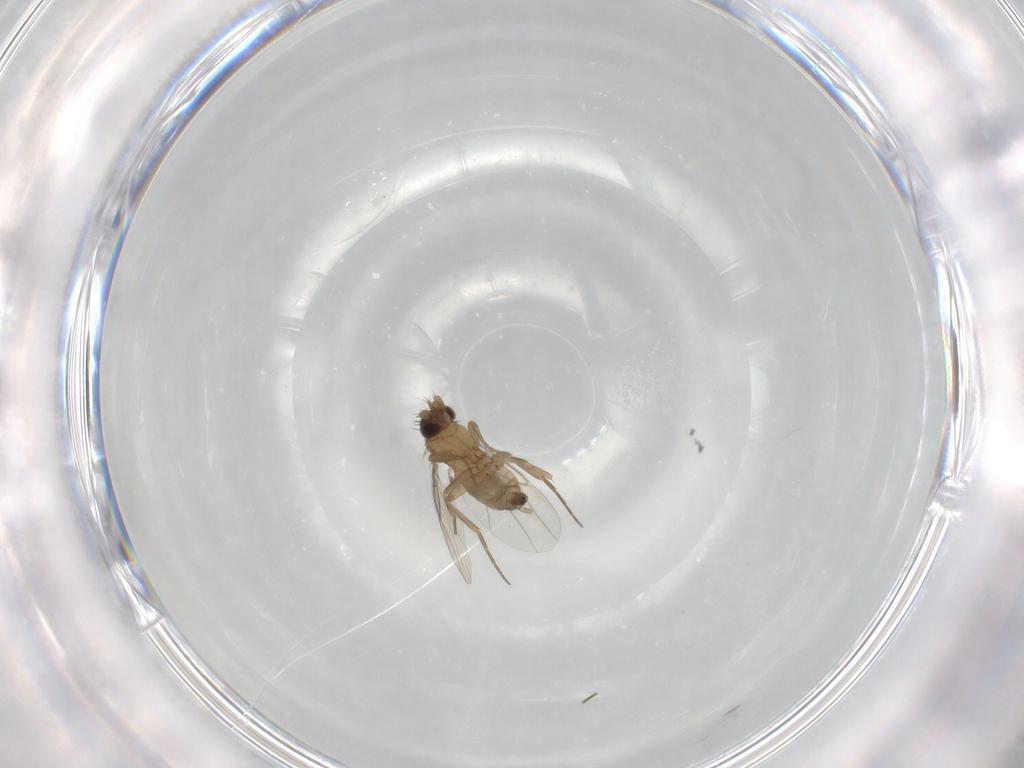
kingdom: Animalia
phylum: Arthropoda
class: Insecta
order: Diptera
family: Phoridae
